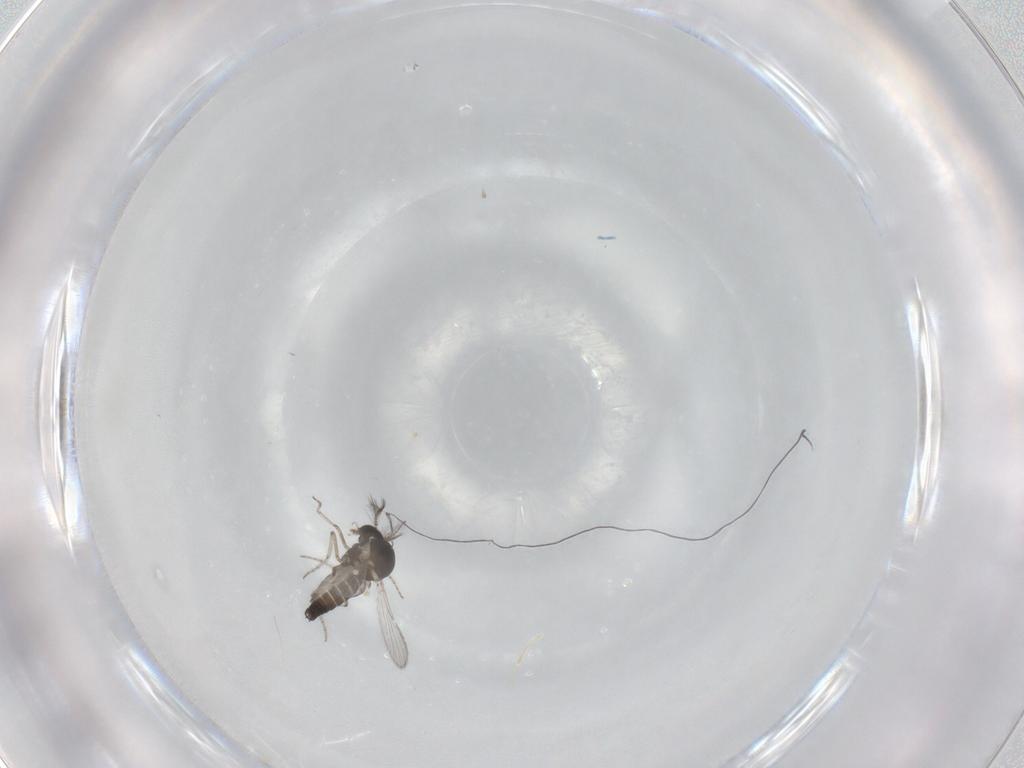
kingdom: Animalia
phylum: Arthropoda
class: Insecta
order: Diptera
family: Ceratopogonidae
